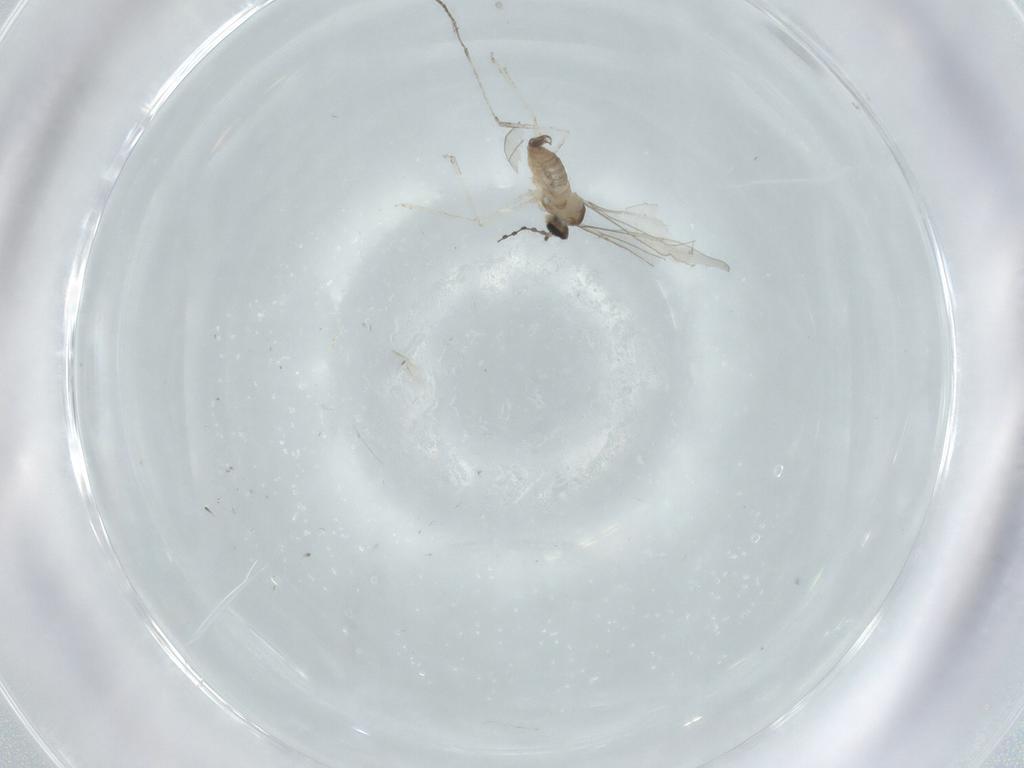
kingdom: Animalia
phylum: Arthropoda
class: Insecta
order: Diptera
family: Cecidomyiidae
